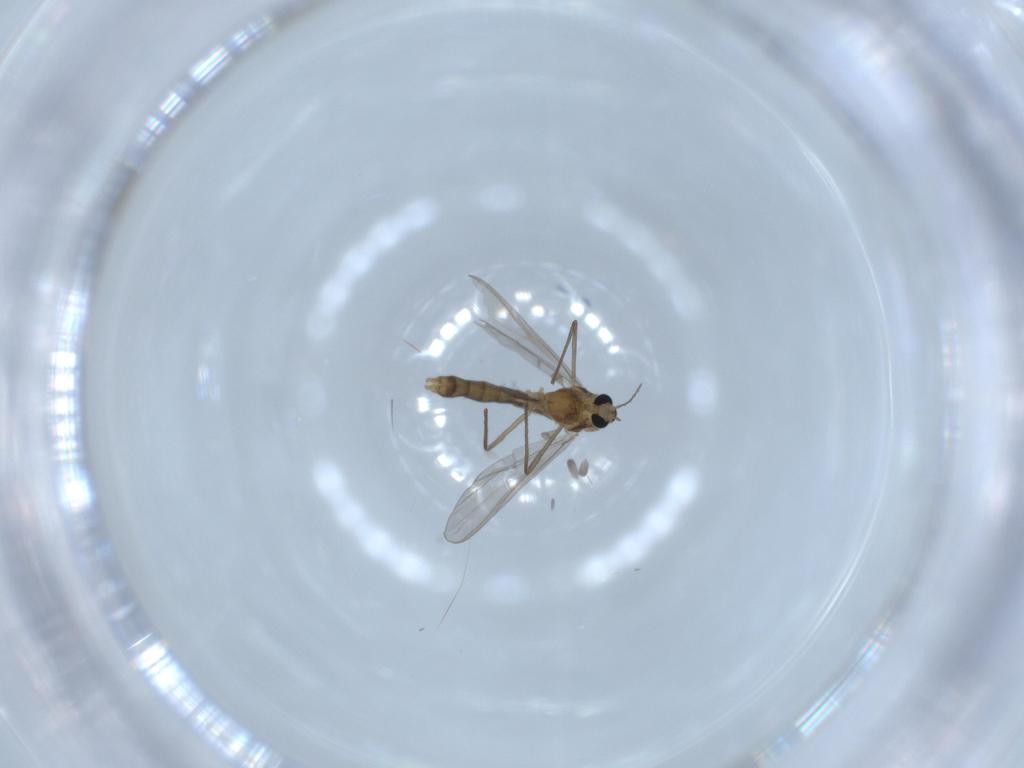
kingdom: Animalia
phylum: Arthropoda
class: Insecta
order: Diptera
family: Chironomidae
